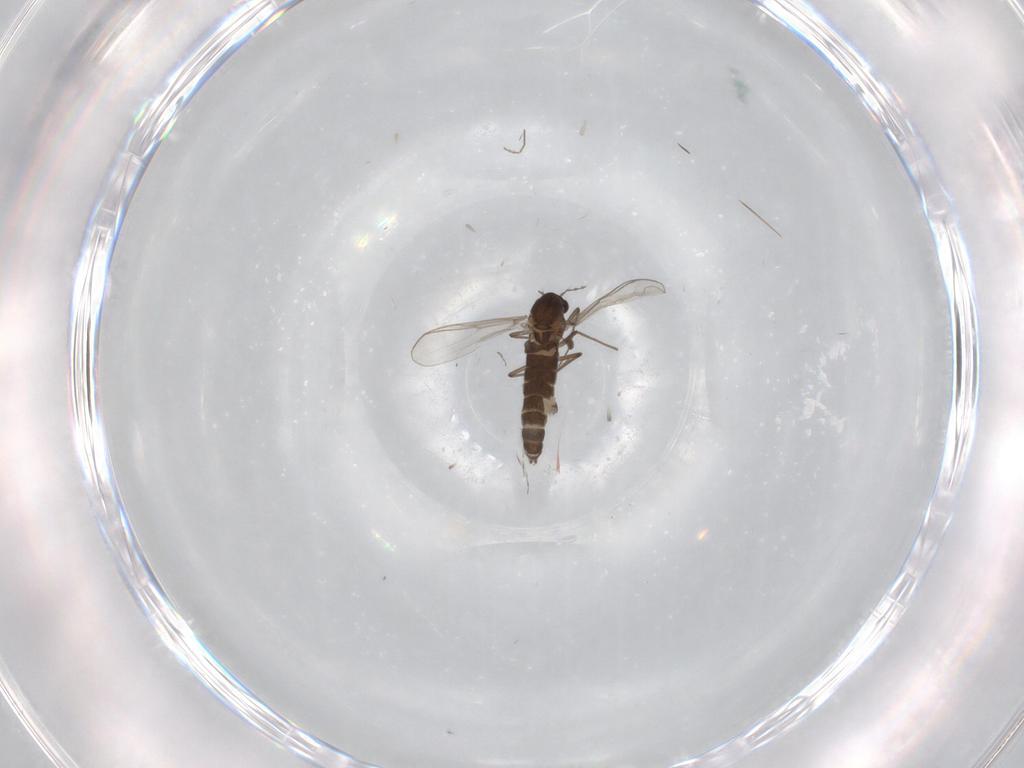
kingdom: Animalia
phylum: Arthropoda
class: Insecta
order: Diptera
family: Chironomidae
